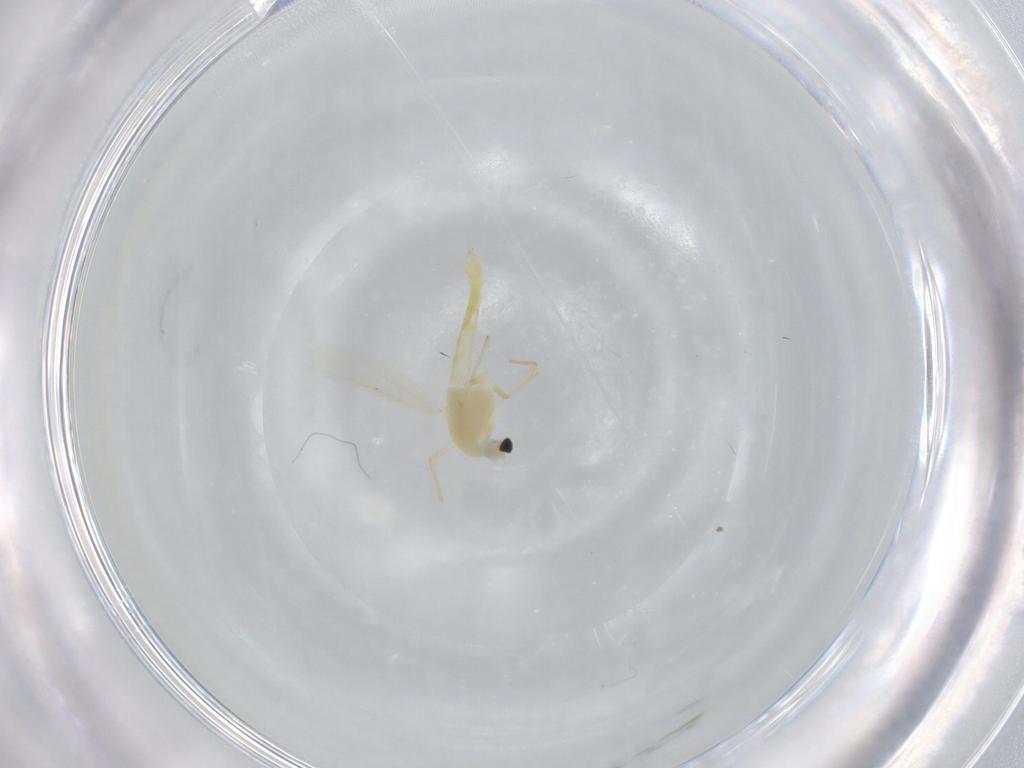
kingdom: Animalia
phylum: Arthropoda
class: Insecta
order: Diptera
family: Chironomidae
